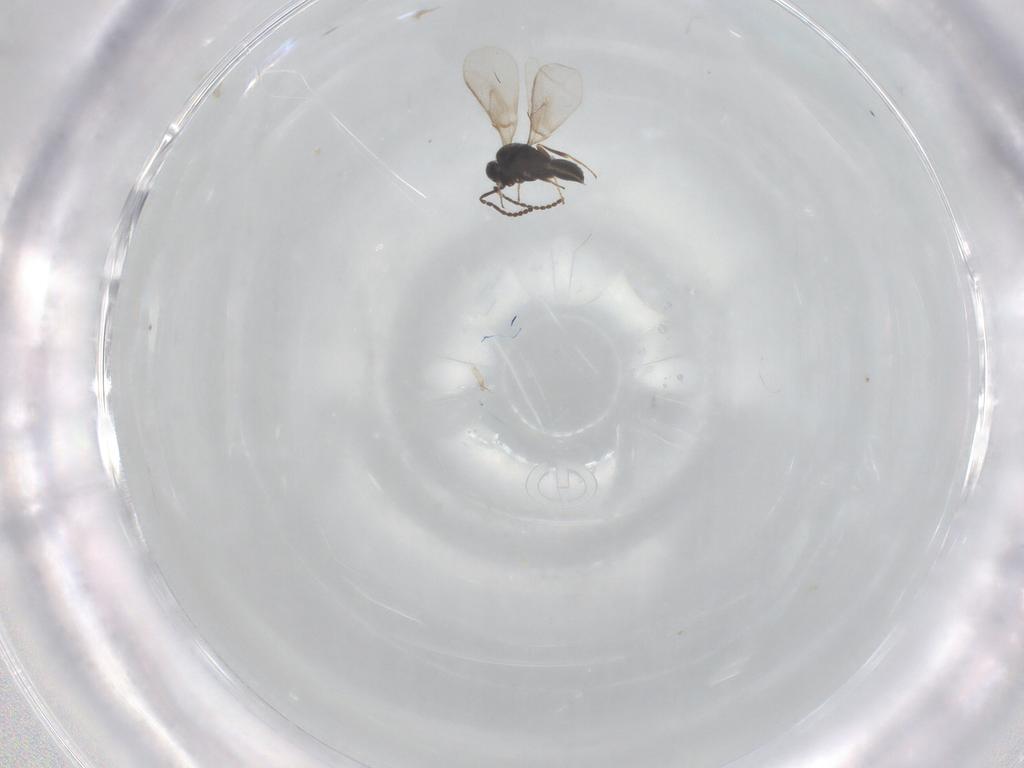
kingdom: Animalia
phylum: Arthropoda
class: Insecta
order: Hymenoptera
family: Scelionidae
